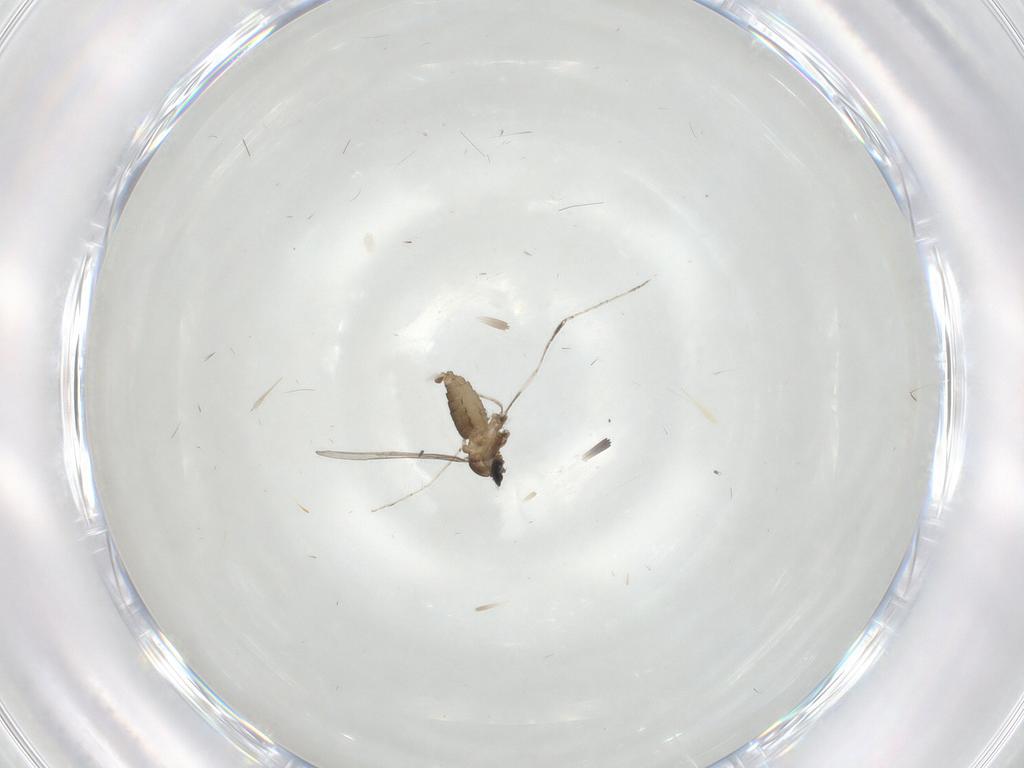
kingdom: Animalia
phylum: Arthropoda
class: Insecta
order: Diptera
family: Cecidomyiidae
